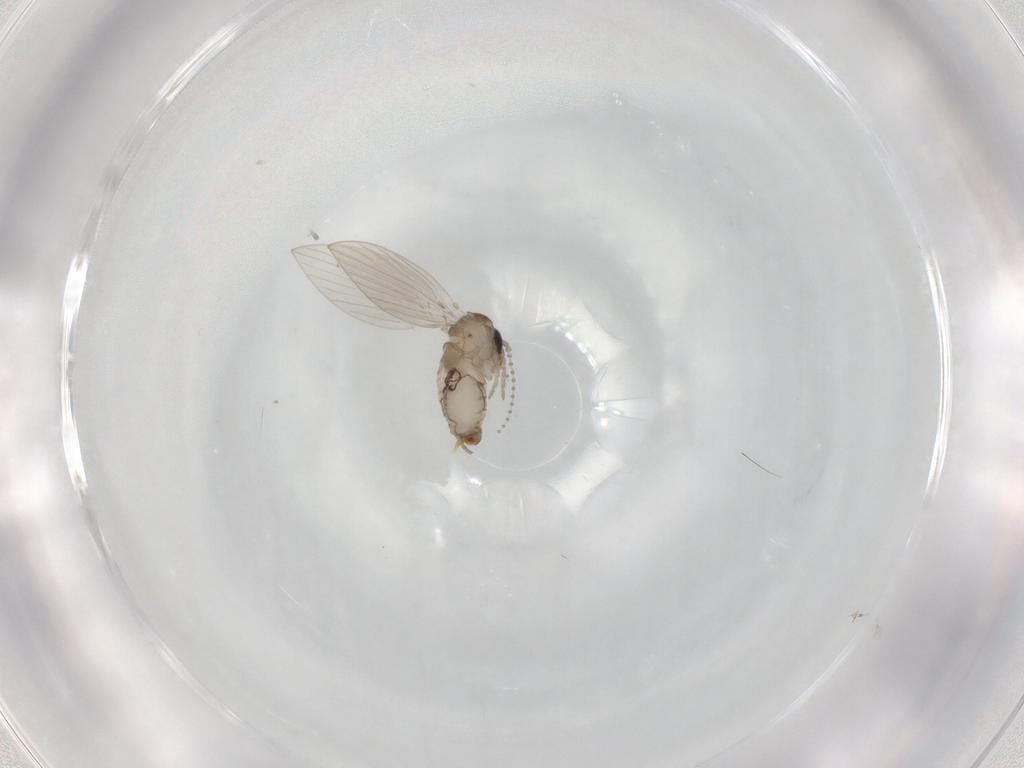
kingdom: Animalia
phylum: Arthropoda
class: Insecta
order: Diptera
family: Psychodidae
